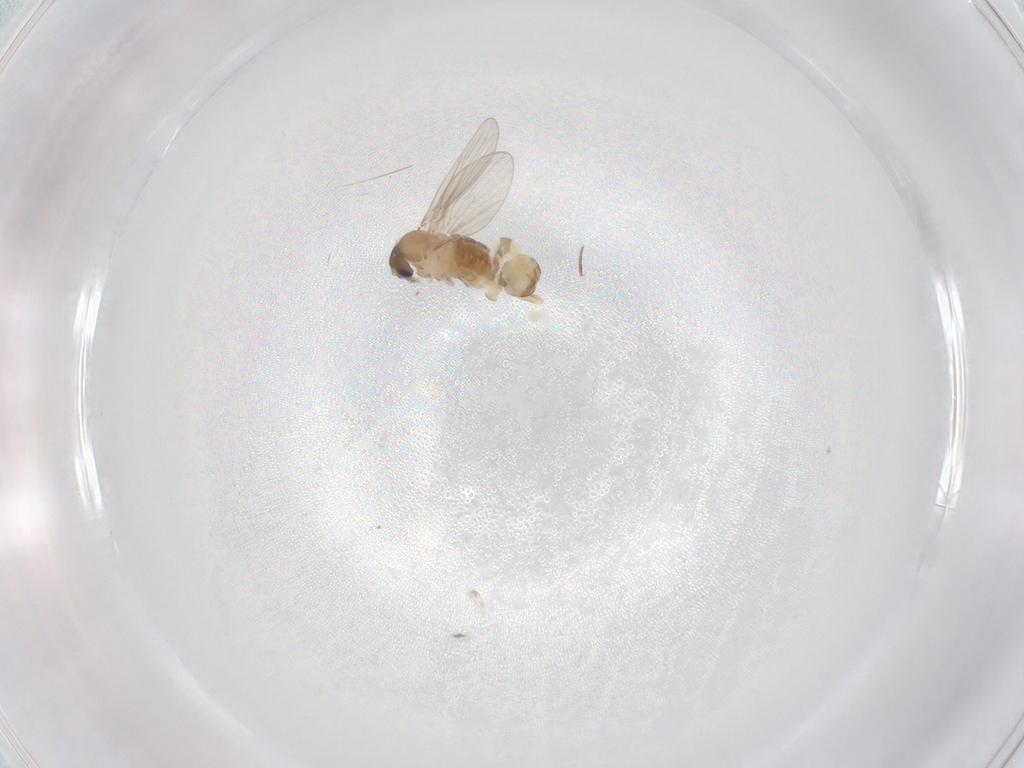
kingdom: Animalia
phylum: Arthropoda
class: Insecta
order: Diptera
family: Psychodidae
